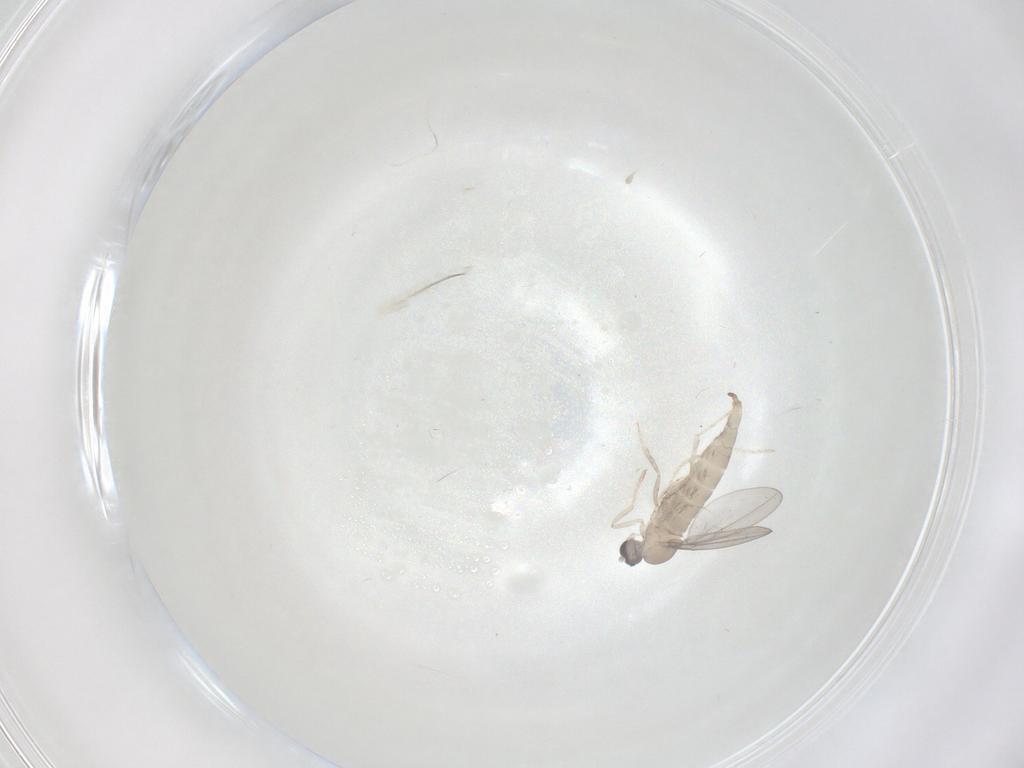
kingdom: Animalia
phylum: Arthropoda
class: Insecta
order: Diptera
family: Cecidomyiidae
